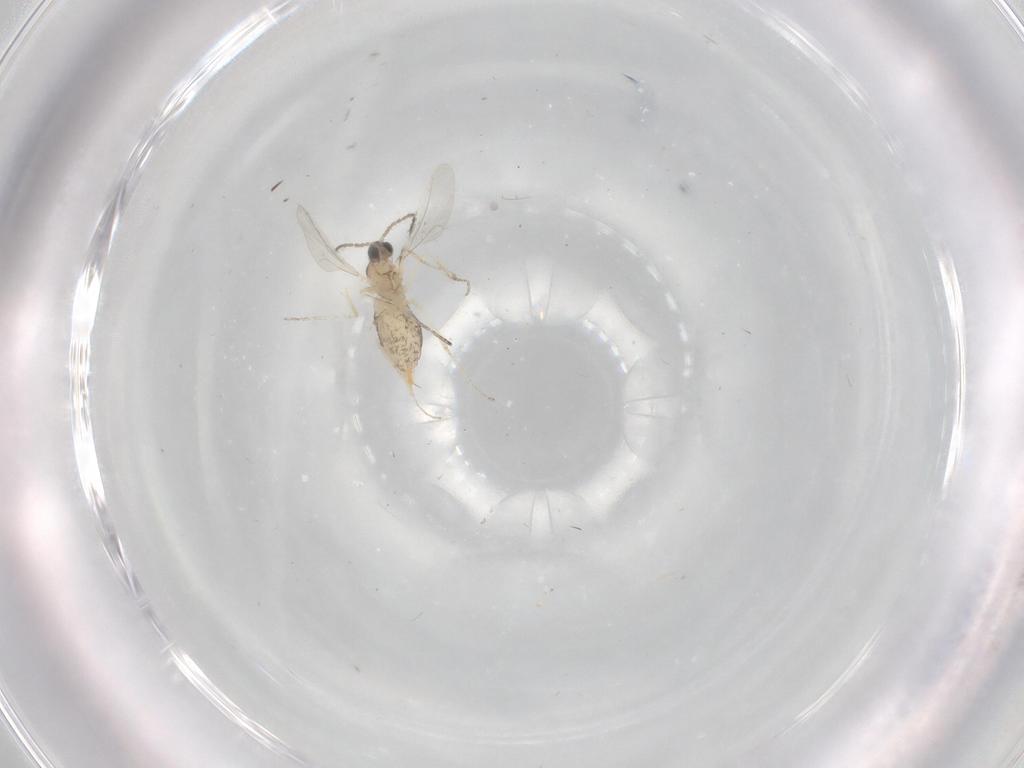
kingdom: Animalia
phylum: Arthropoda
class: Insecta
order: Diptera
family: Cecidomyiidae
